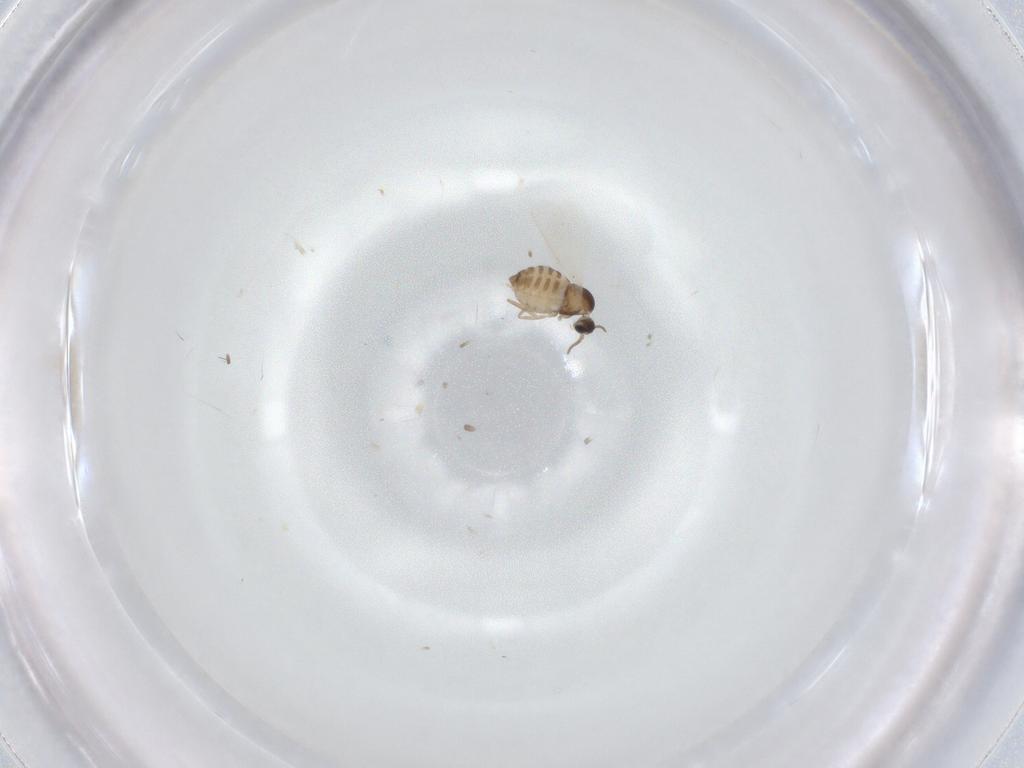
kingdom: Animalia
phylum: Arthropoda
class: Insecta
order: Diptera
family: Cecidomyiidae
